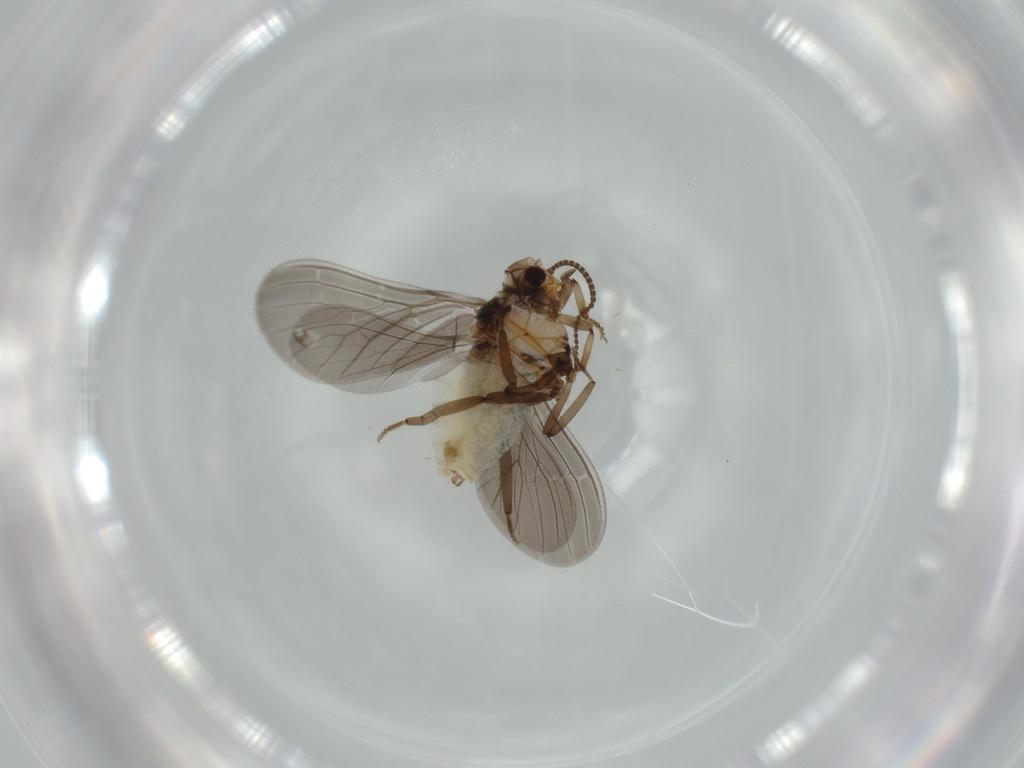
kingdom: Animalia
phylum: Arthropoda
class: Insecta
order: Neuroptera
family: Coniopterygidae
